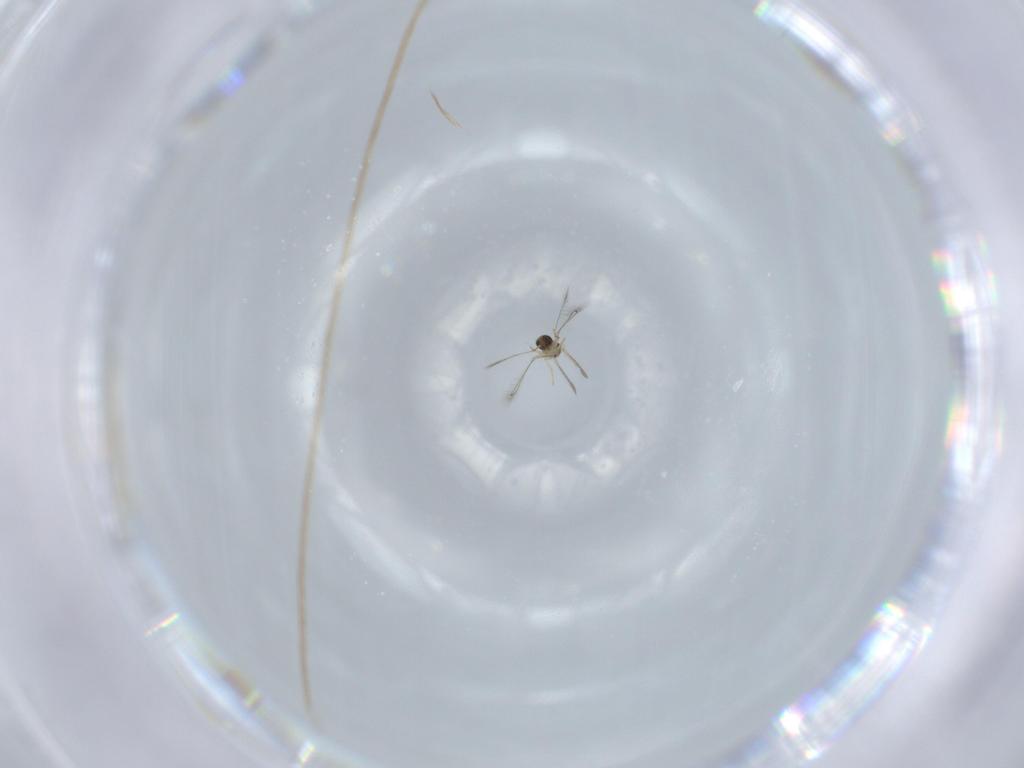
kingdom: Animalia
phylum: Arthropoda
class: Insecta
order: Hymenoptera
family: Mymaridae
